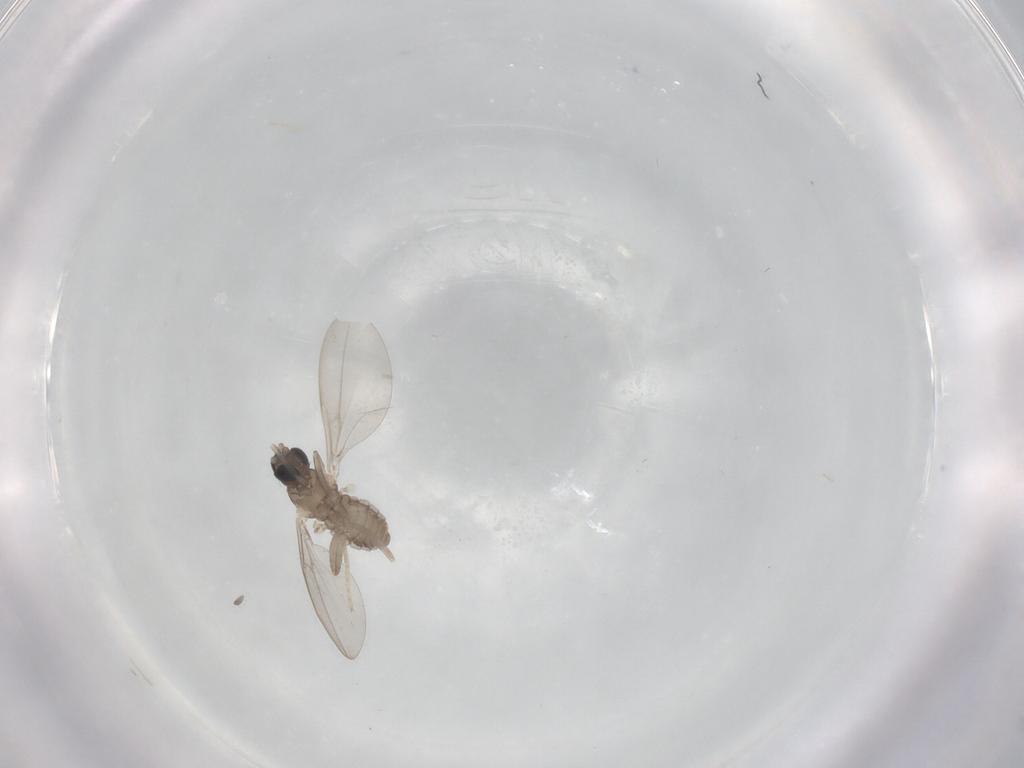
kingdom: Animalia
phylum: Arthropoda
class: Insecta
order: Diptera
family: Cecidomyiidae
